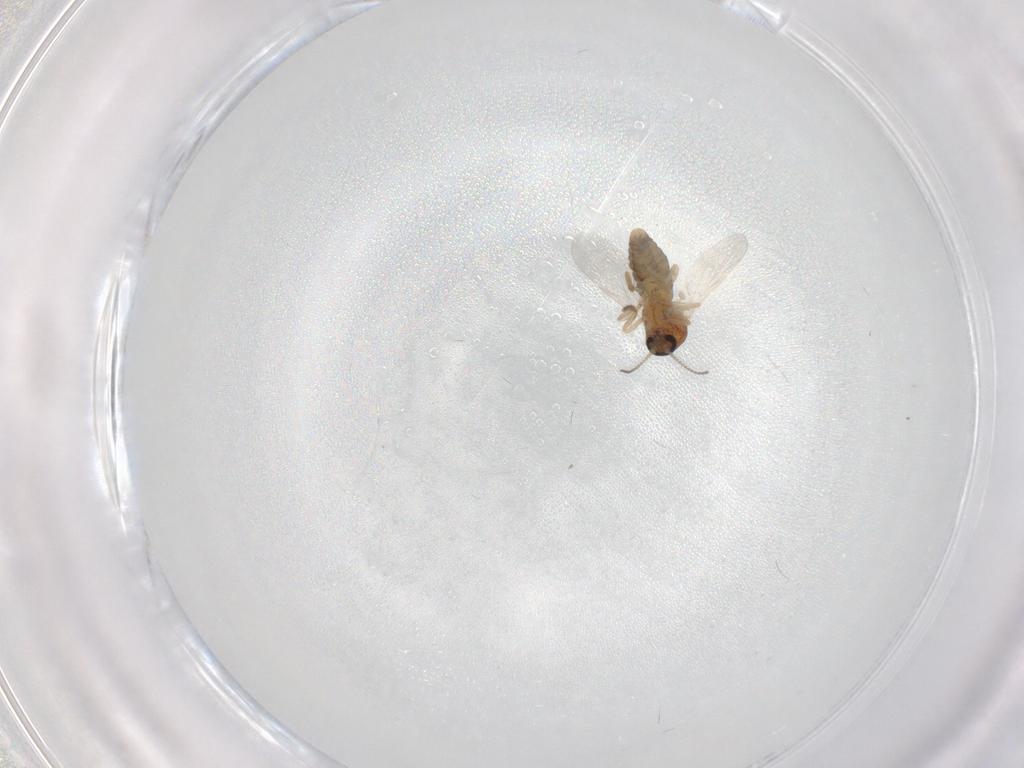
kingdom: Animalia
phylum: Arthropoda
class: Insecta
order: Diptera
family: Ceratopogonidae
